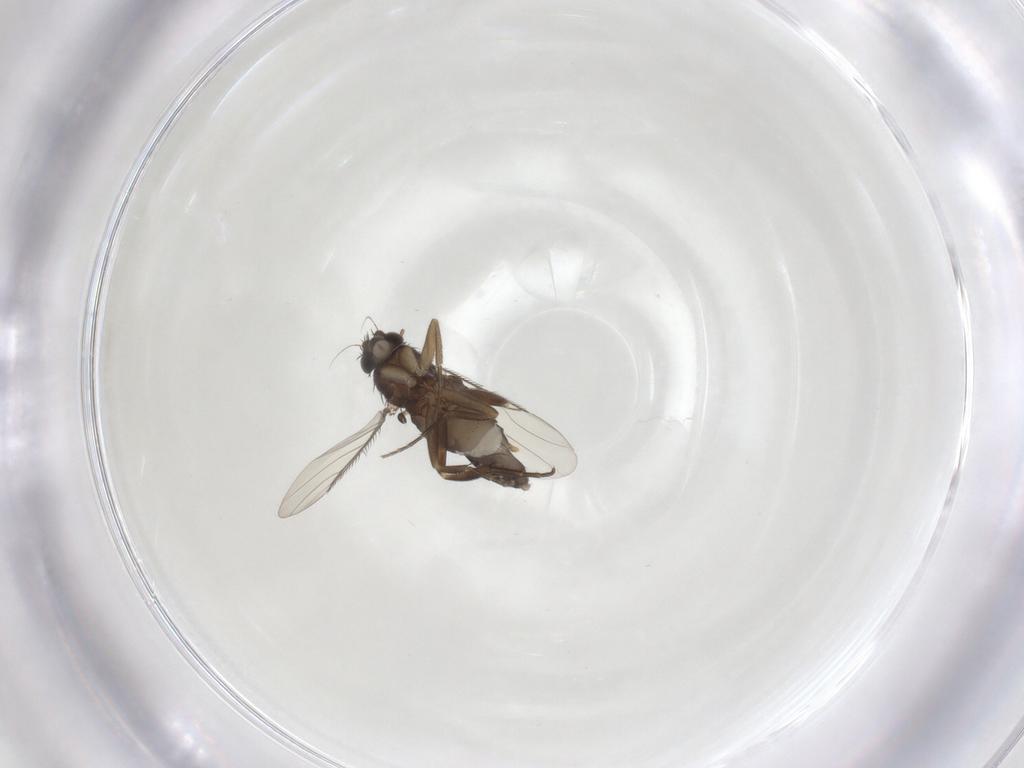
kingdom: Animalia
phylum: Arthropoda
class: Insecta
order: Diptera
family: Phoridae
